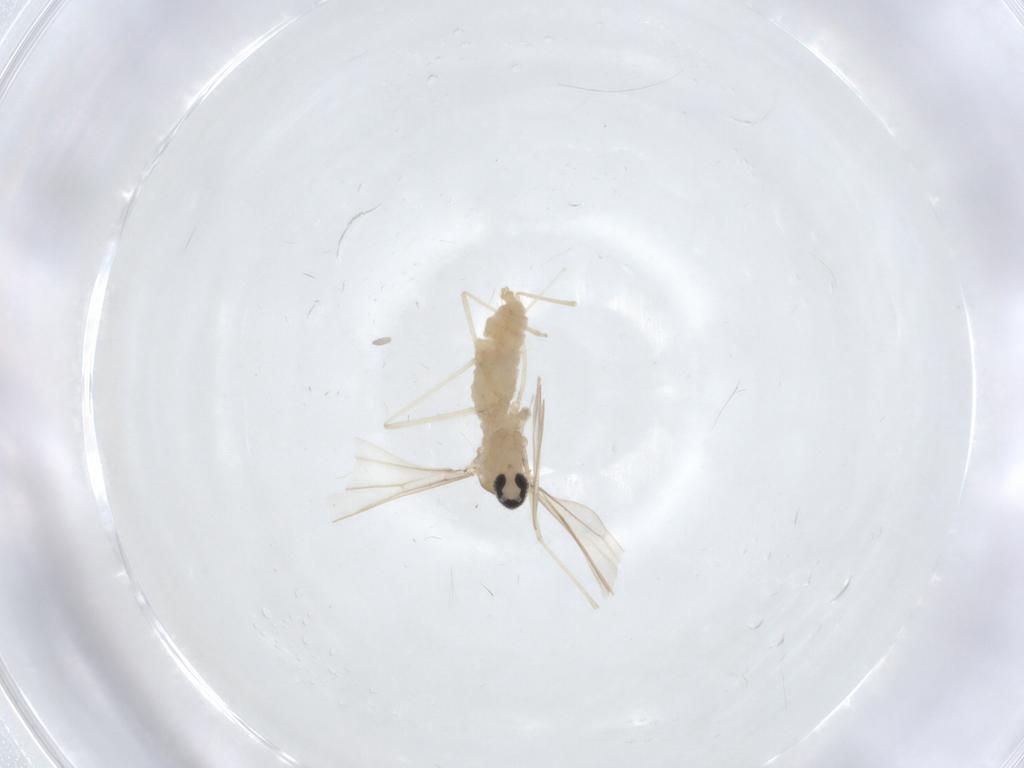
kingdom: Animalia
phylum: Arthropoda
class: Insecta
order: Diptera
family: Cecidomyiidae
